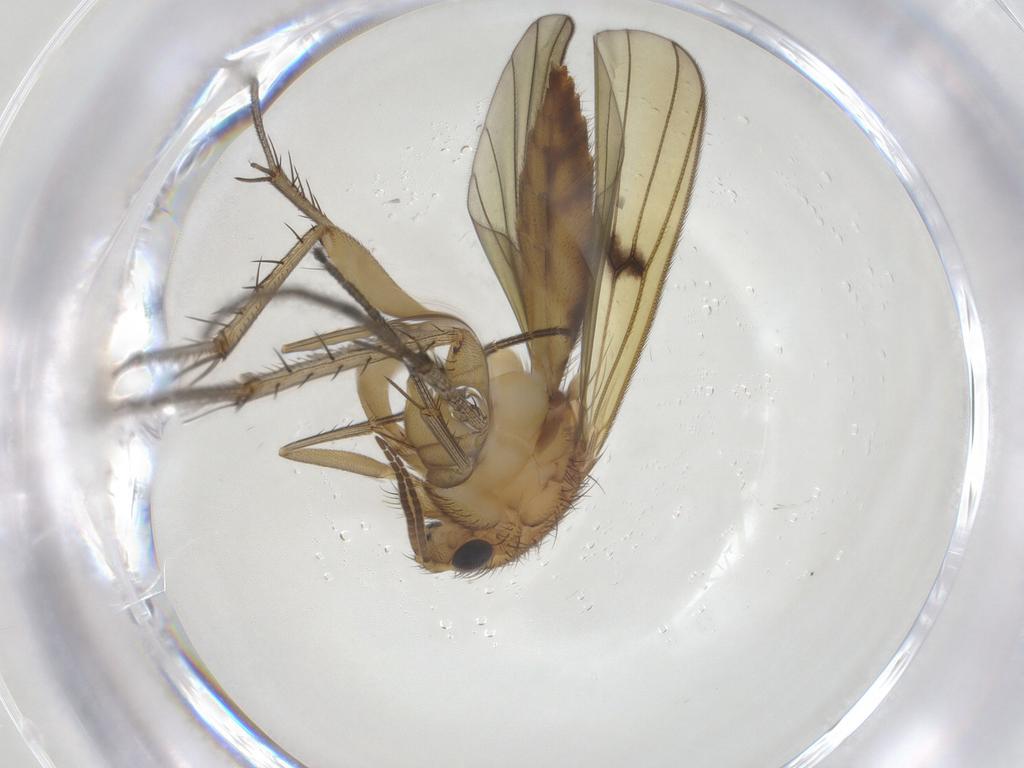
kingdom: Animalia
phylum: Arthropoda
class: Insecta
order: Diptera
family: Mycetophilidae
